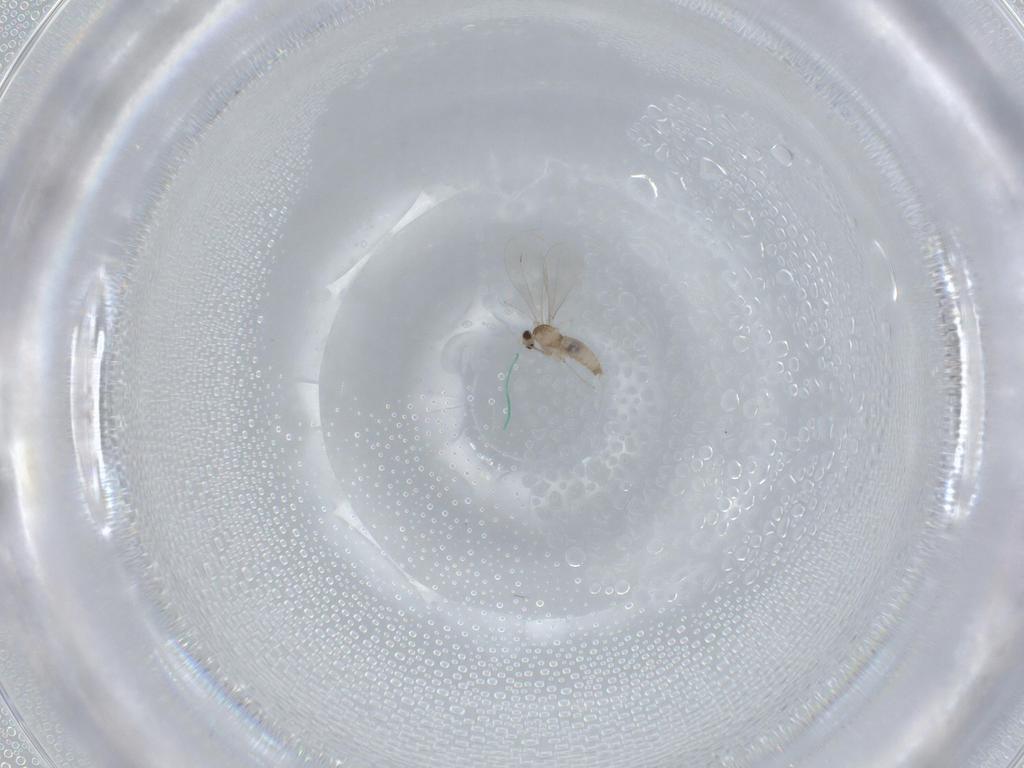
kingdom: Animalia
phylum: Arthropoda
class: Insecta
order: Diptera
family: Cecidomyiidae
